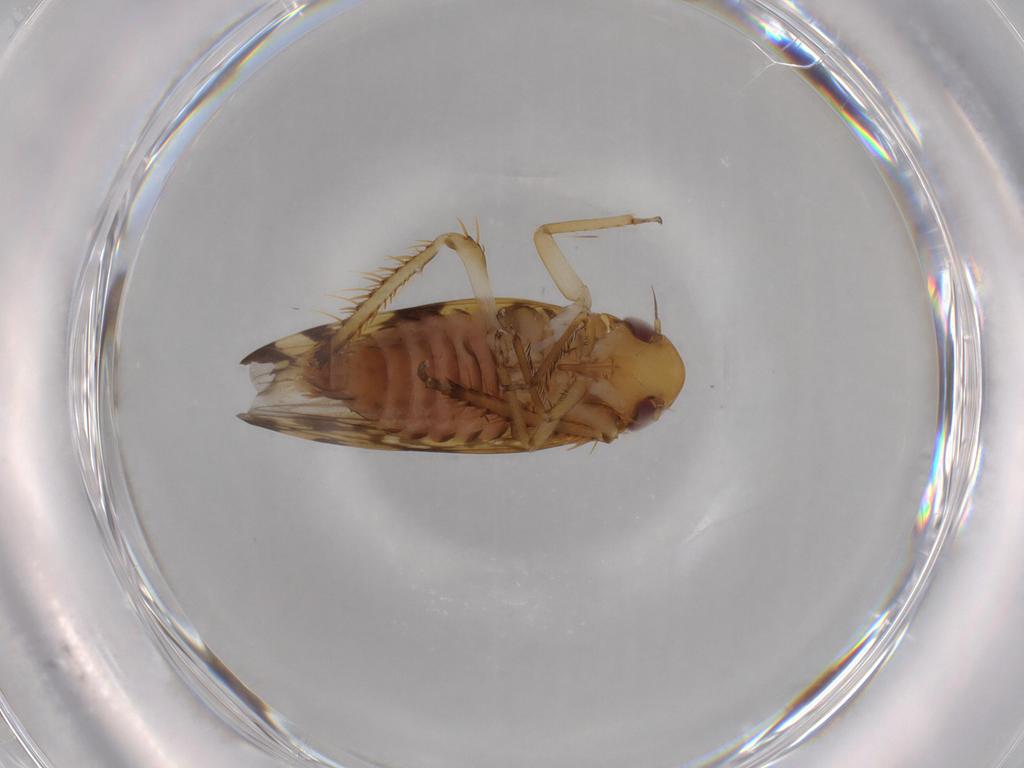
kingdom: Animalia
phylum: Arthropoda
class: Insecta
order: Hemiptera
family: Cicadellidae
